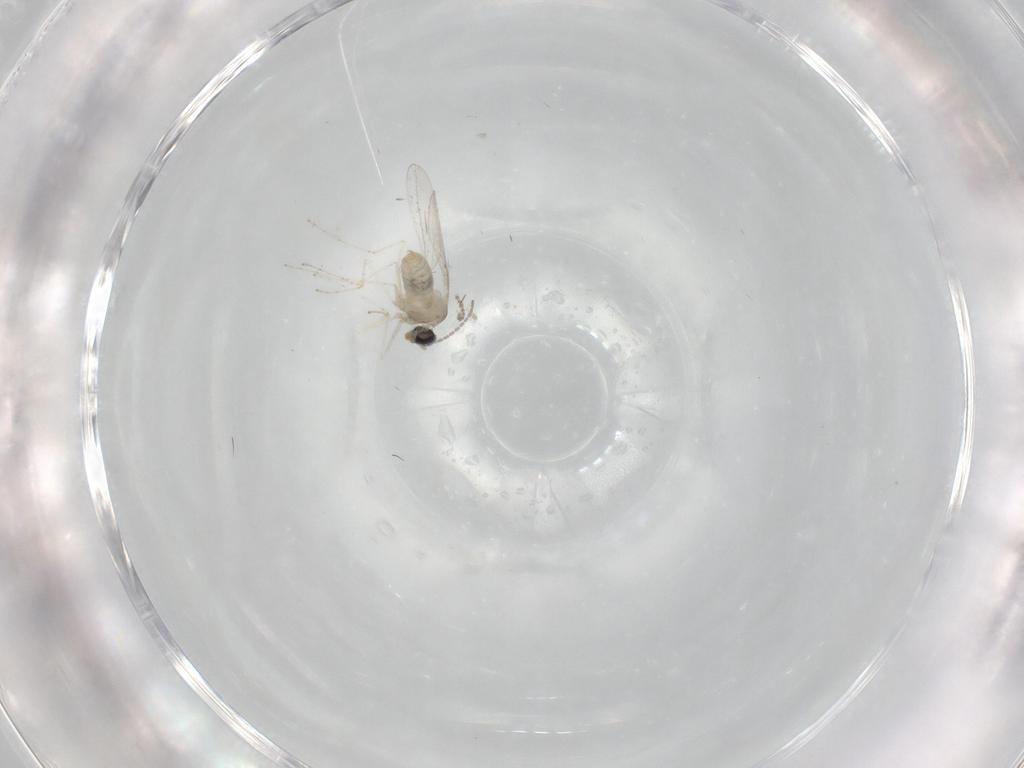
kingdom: Animalia
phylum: Arthropoda
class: Insecta
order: Diptera
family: Cecidomyiidae
